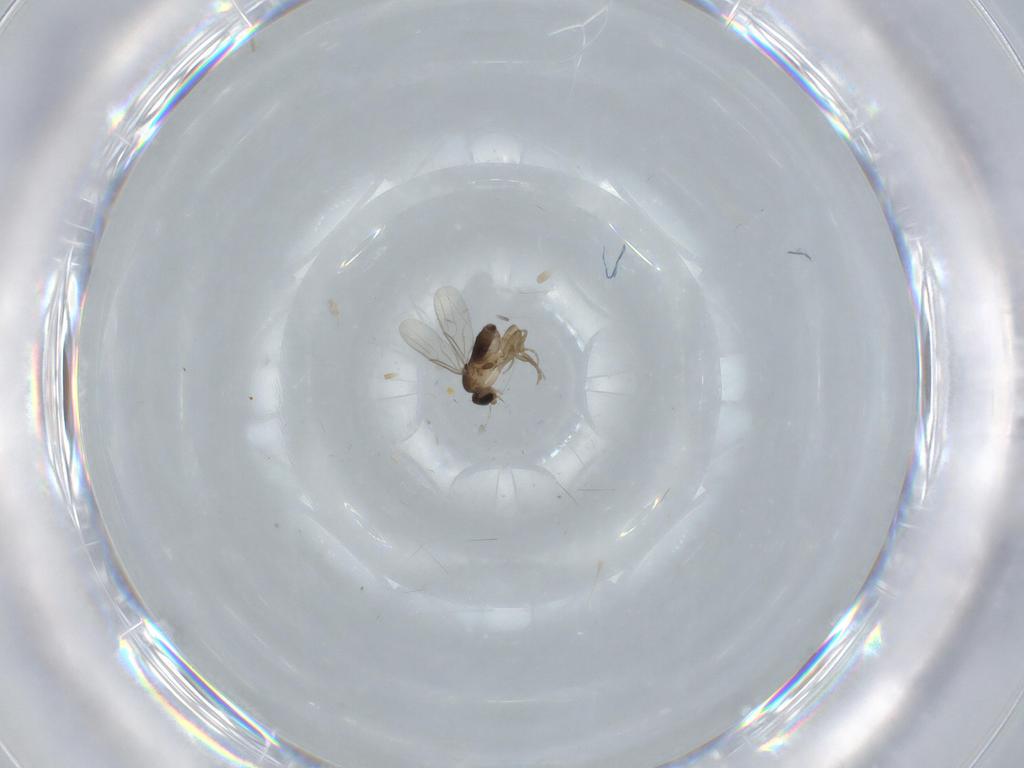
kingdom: Animalia
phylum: Arthropoda
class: Insecta
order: Diptera
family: Phoridae
